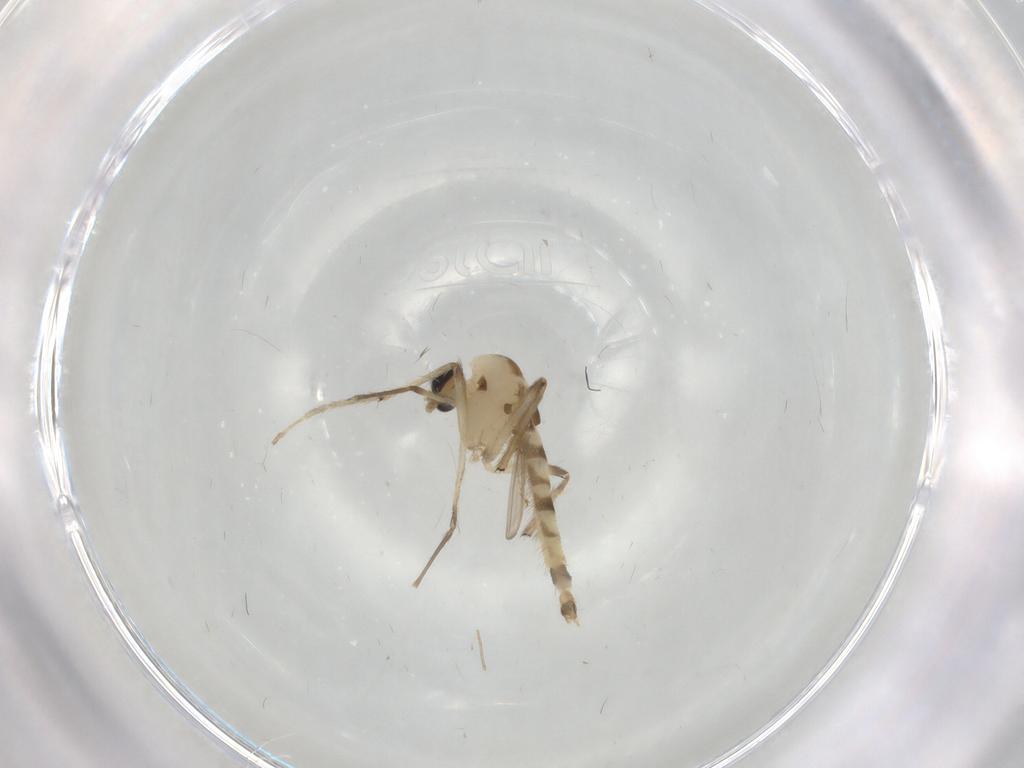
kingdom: Animalia
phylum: Arthropoda
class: Insecta
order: Diptera
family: Chironomidae
